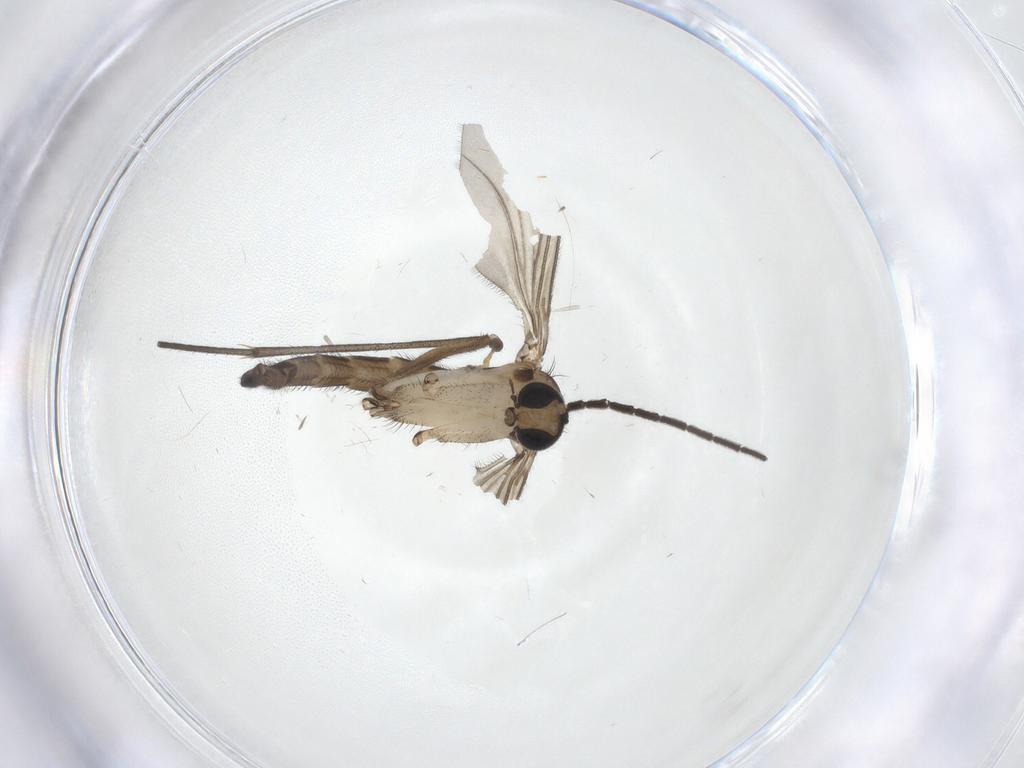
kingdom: Animalia
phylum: Arthropoda
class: Insecta
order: Diptera
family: Sciaridae
